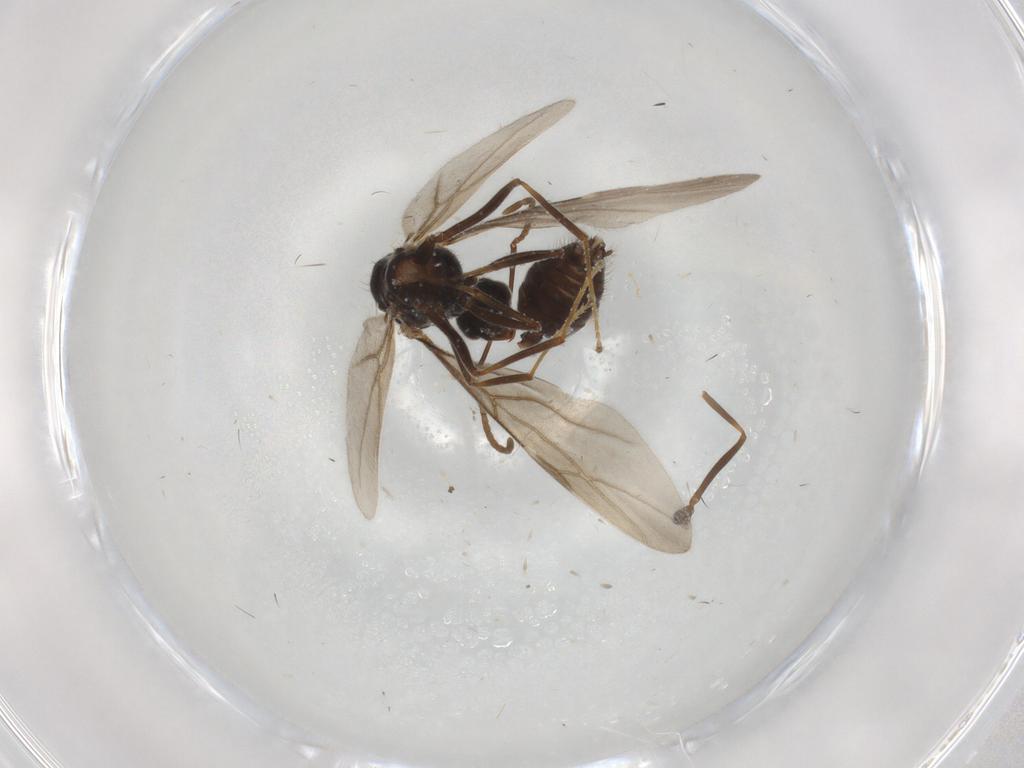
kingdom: Animalia
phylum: Arthropoda
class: Insecta
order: Hymenoptera
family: Formicidae
